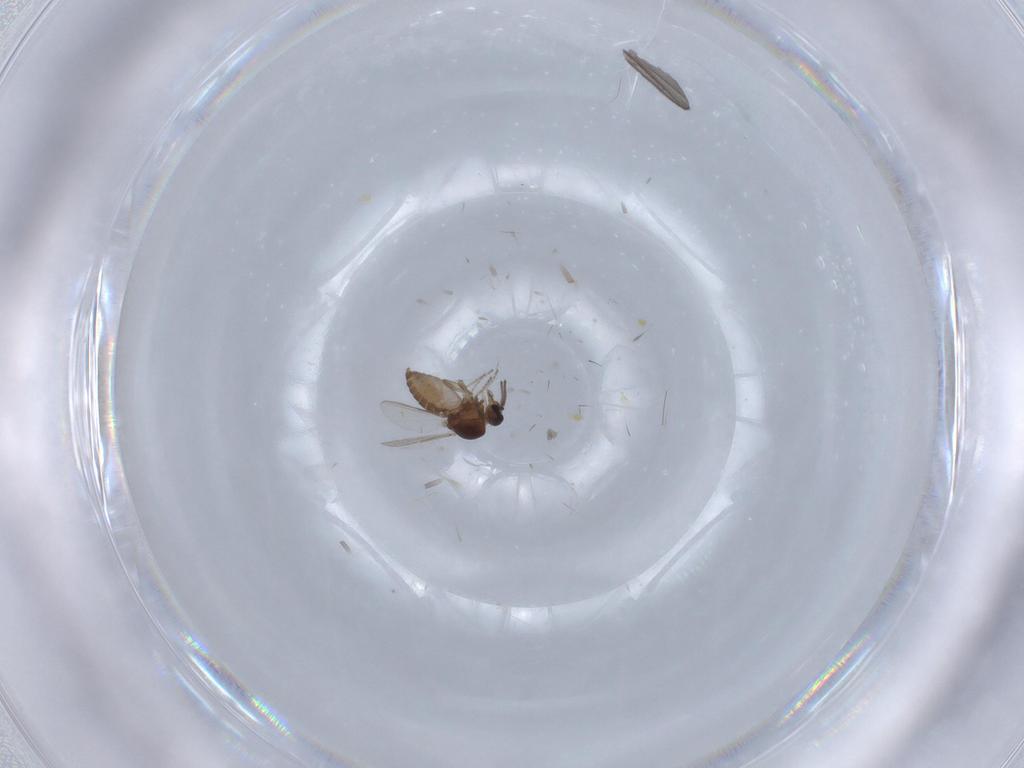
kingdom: Animalia
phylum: Arthropoda
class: Insecta
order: Diptera
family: Ceratopogonidae
